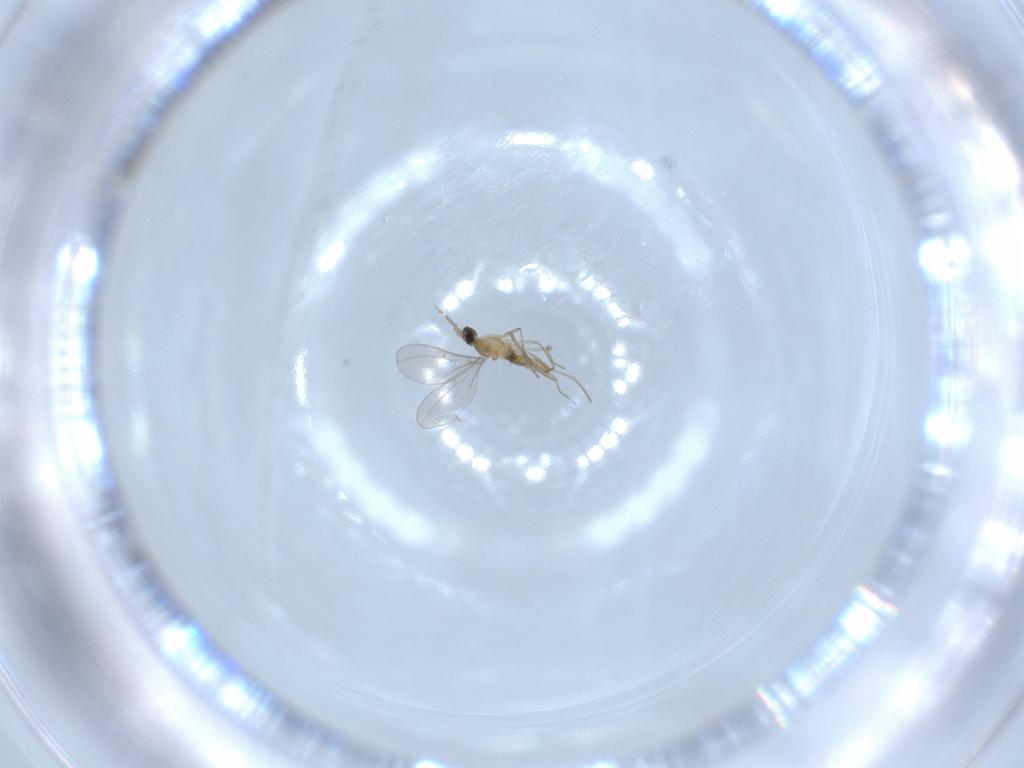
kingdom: Animalia
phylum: Arthropoda
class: Insecta
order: Diptera
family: Cecidomyiidae
